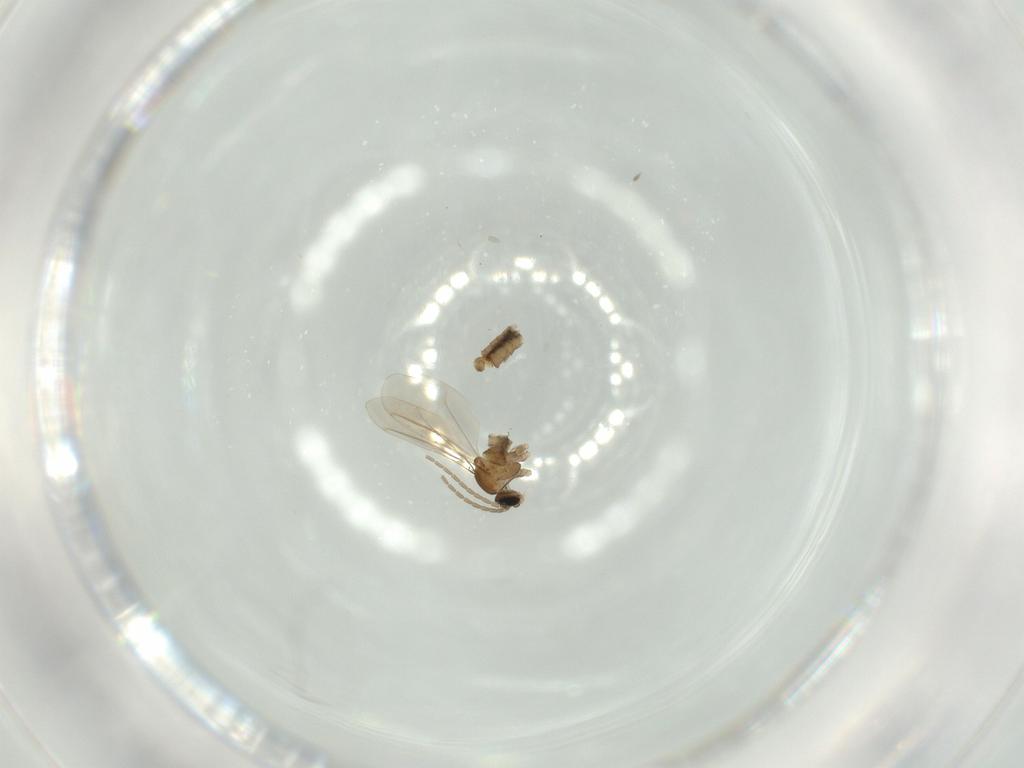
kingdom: Animalia
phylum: Arthropoda
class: Insecta
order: Diptera
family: Cecidomyiidae
